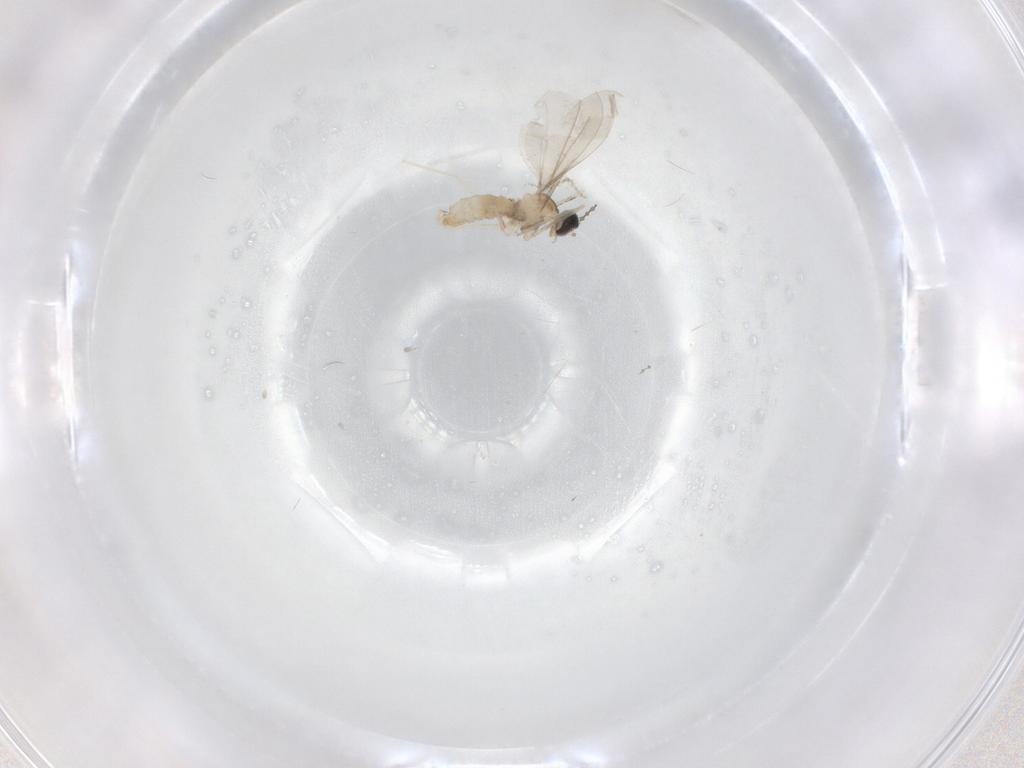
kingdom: Animalia
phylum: Arthropoda
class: Insecta
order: Diptera
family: Cecidomyiidae
